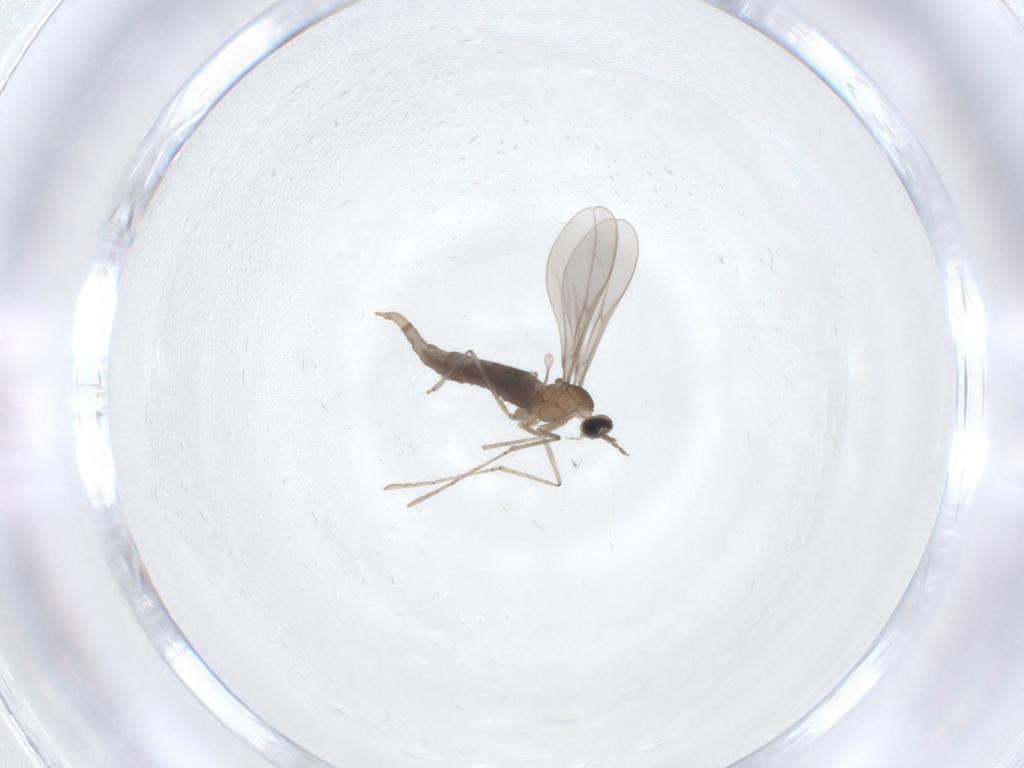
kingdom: Animalia
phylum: Arthropoda
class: Insecta
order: Diptera
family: Cecidomyiidae
